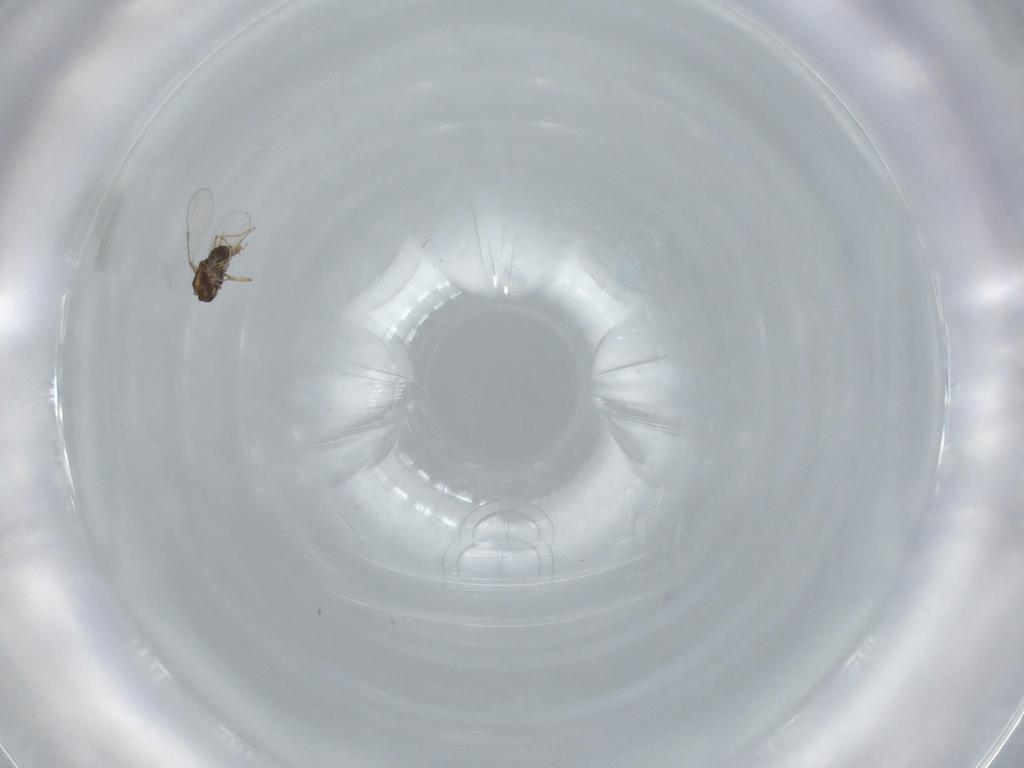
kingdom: Animalia
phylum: Arthropoda
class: Insecta
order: Diptera
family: Chironomidae
